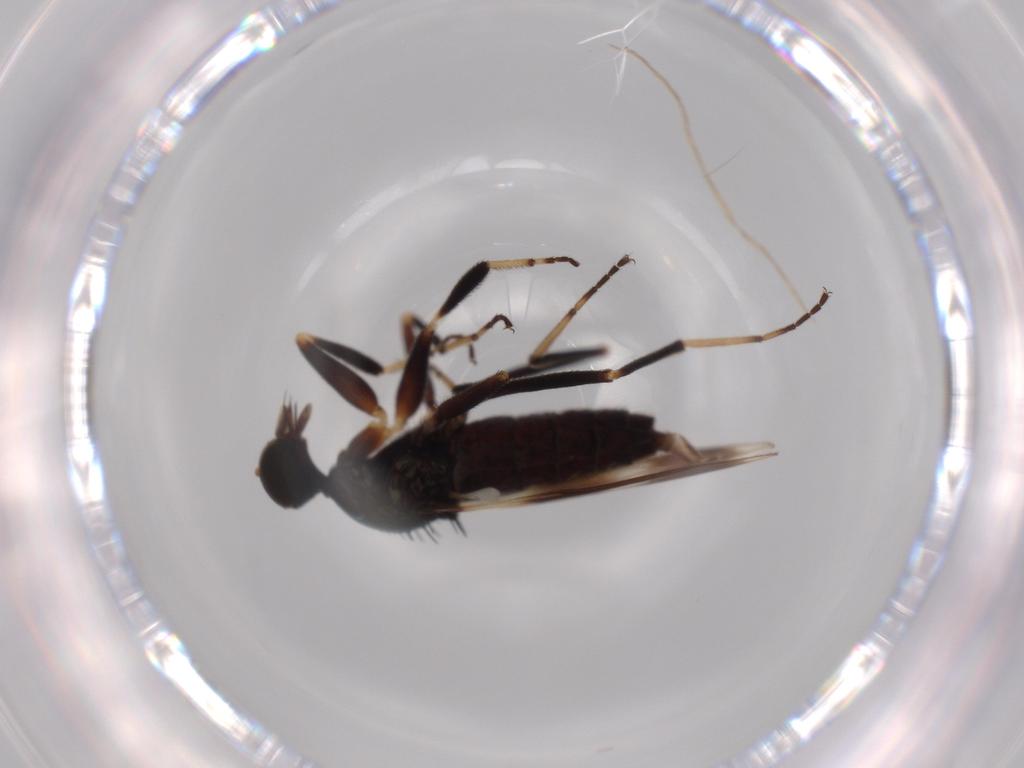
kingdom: Animalia
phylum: Arthropoda
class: Insecta
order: Diptera
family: Hybotidae
